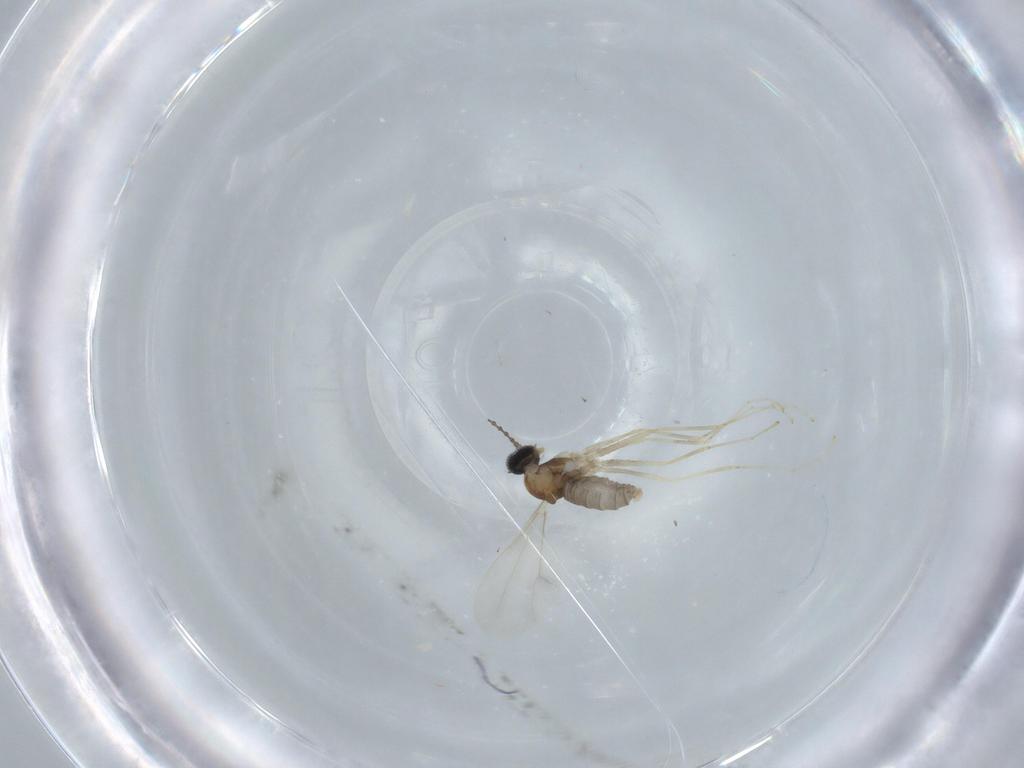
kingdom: Animalia
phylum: Arthropoda
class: Insecta
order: Diptera
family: Cecidomyiidae
